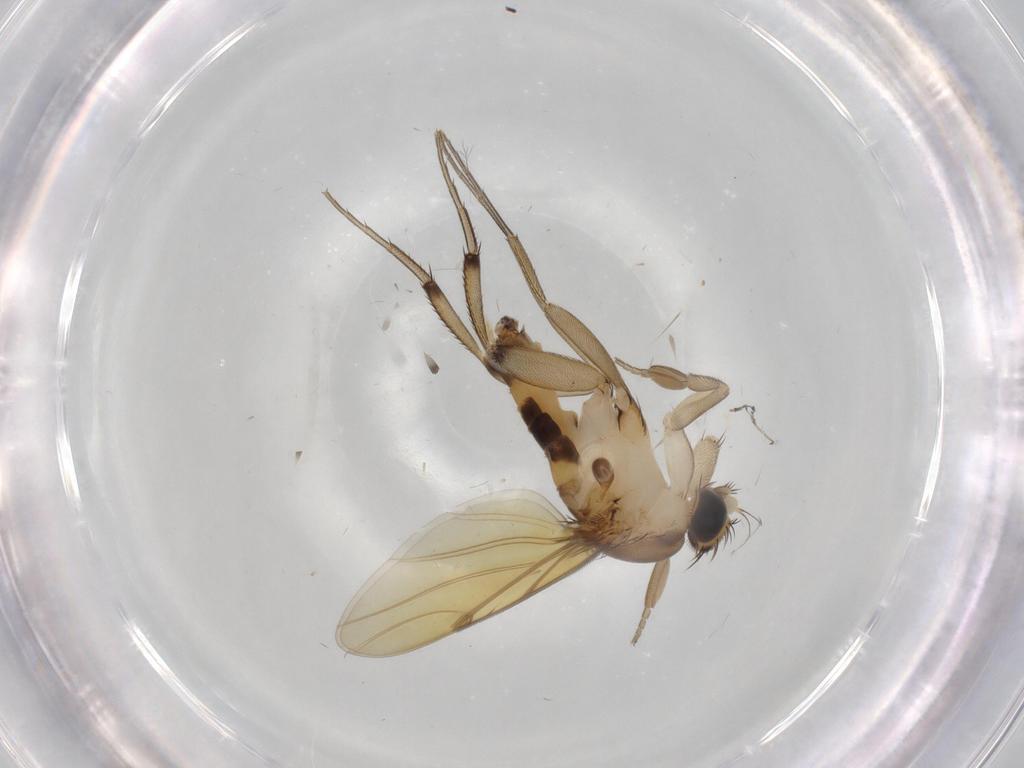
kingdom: Animalia
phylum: Arthropoda
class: Insecta
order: Diptera
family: Phoridae
